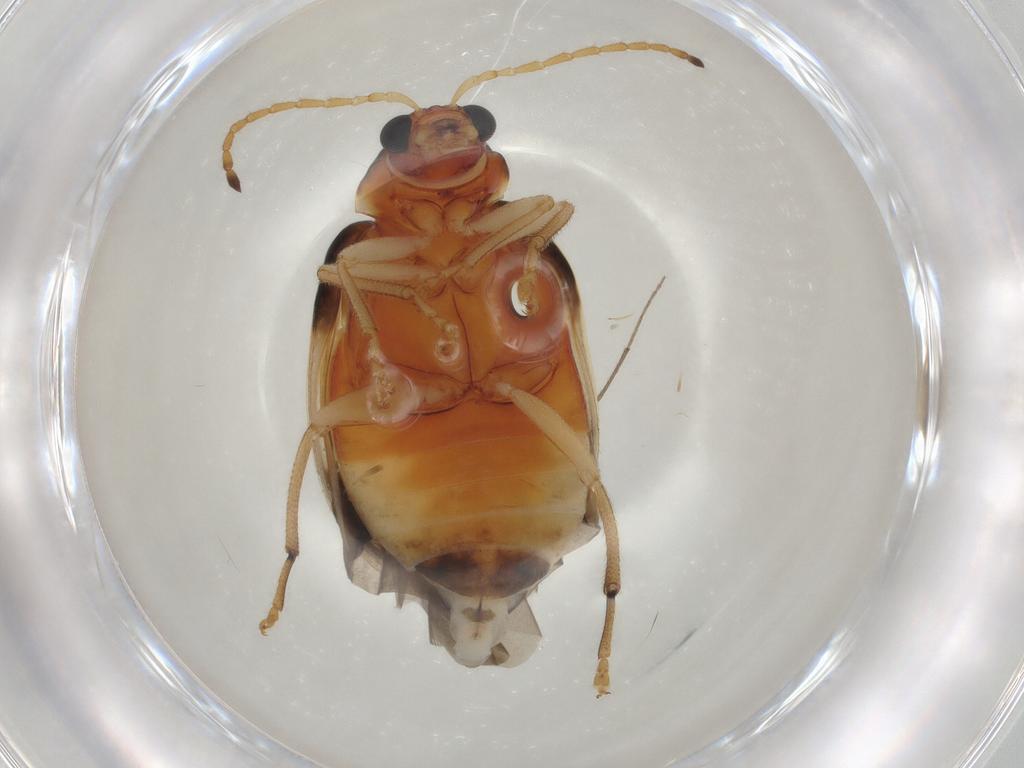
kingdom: Animalia
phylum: Arthropoda
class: Insecta
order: Coleoptera
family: Chrysomelidae
